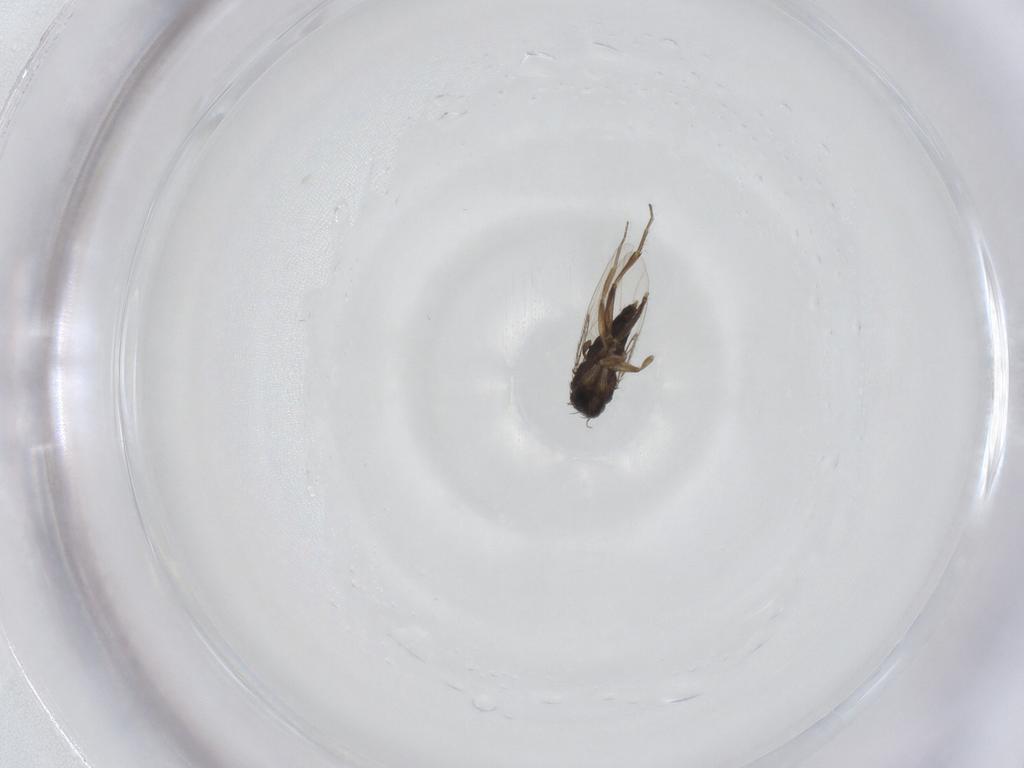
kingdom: Animalia
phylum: Arthropoda
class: Insecta
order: Diptera
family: Phoridae
